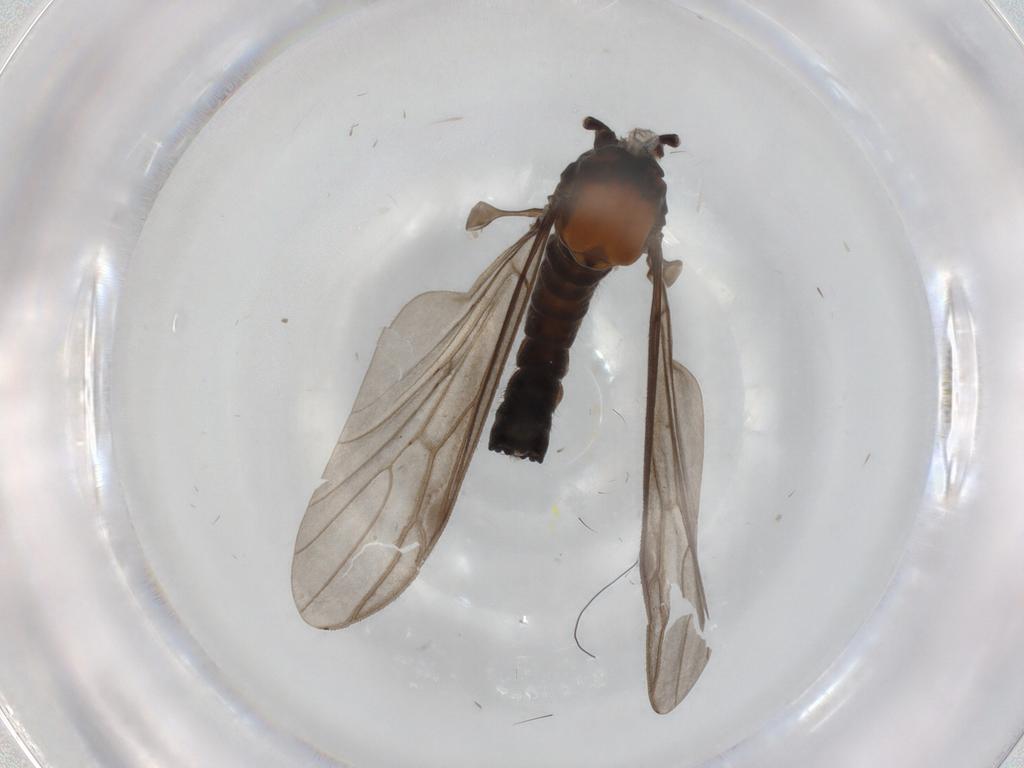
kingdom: Animalia
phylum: Arthropoda
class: Insecta
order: Diptera
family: Bibionidae
